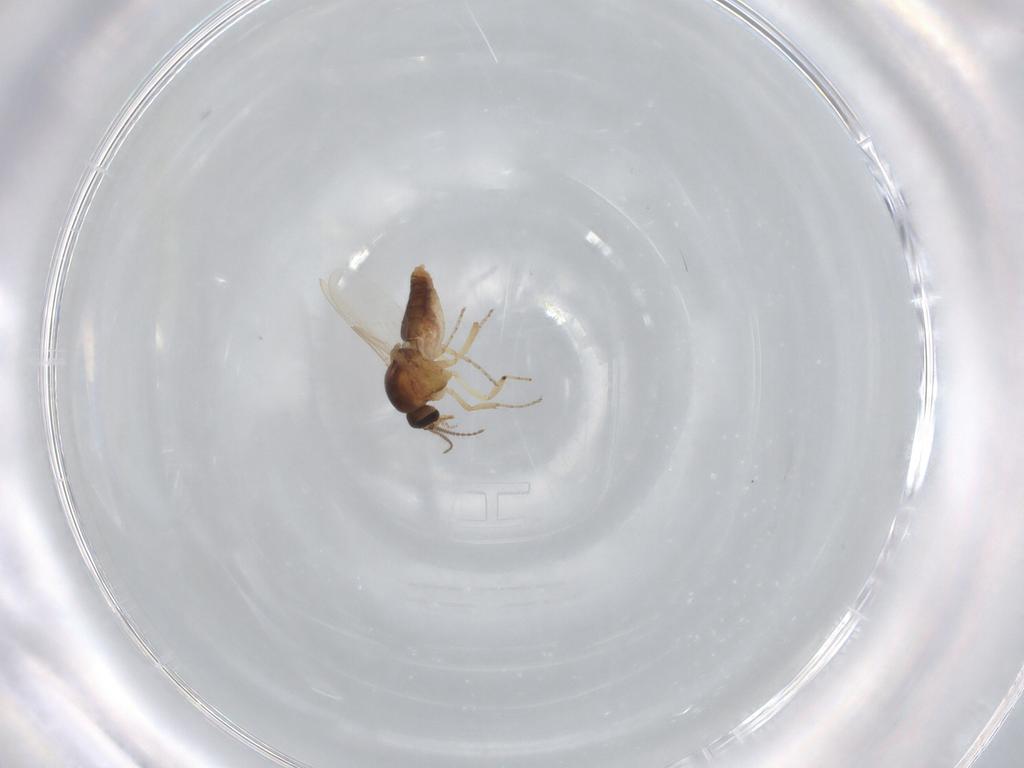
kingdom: Animalia
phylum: Arthropoda
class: Insecta
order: Diptera
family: Ceratopogonidae
